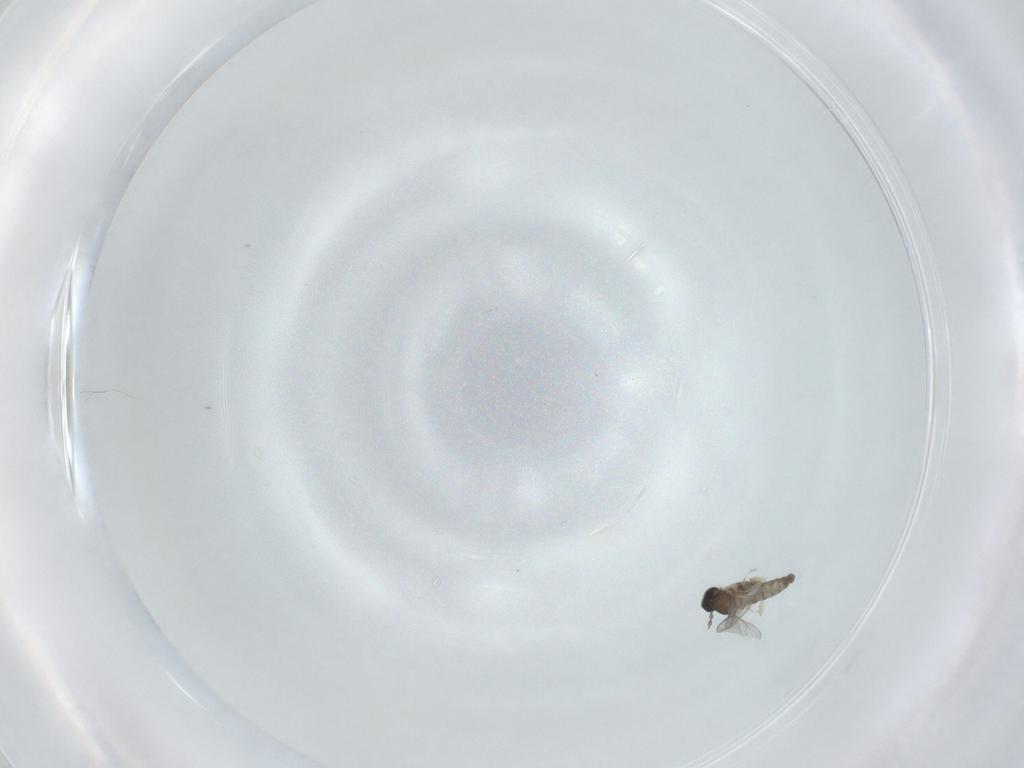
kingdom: Animalia
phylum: Arthropoda
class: Insecta
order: Diptera
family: Cecidomyiidae
